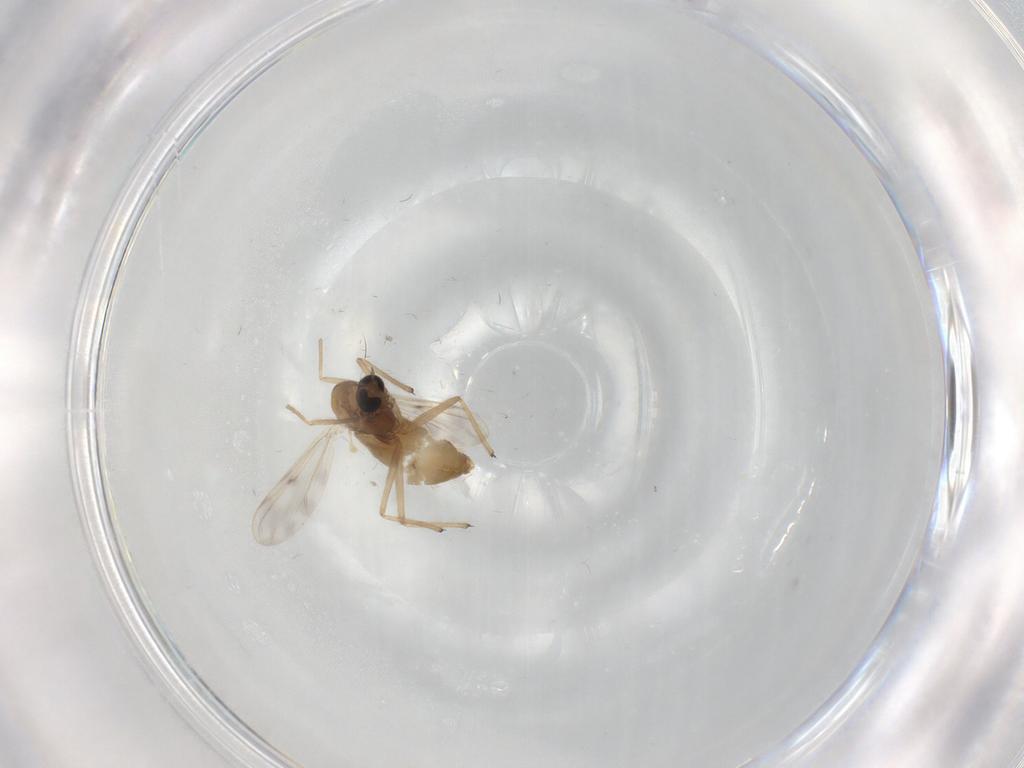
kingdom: Animalia
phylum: Arthropoda
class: Insecta
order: Diptera
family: Chironomidae
